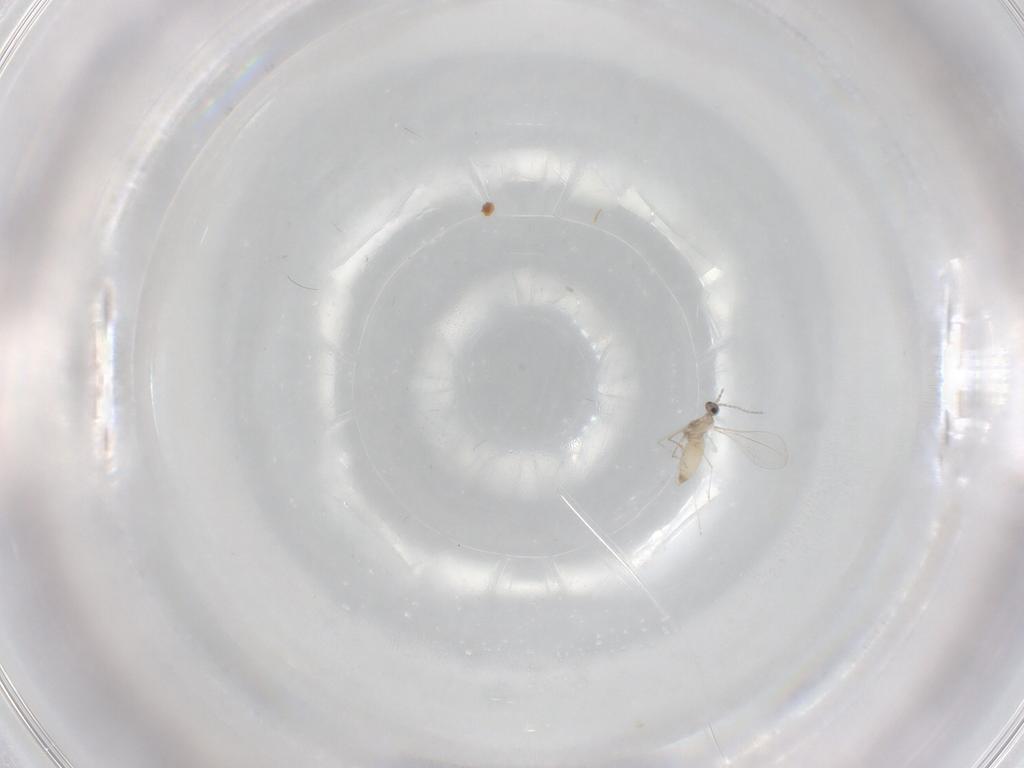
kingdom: Animalia
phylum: Arthropoda
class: Insecta
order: Diptera
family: Cecidomyiidae
